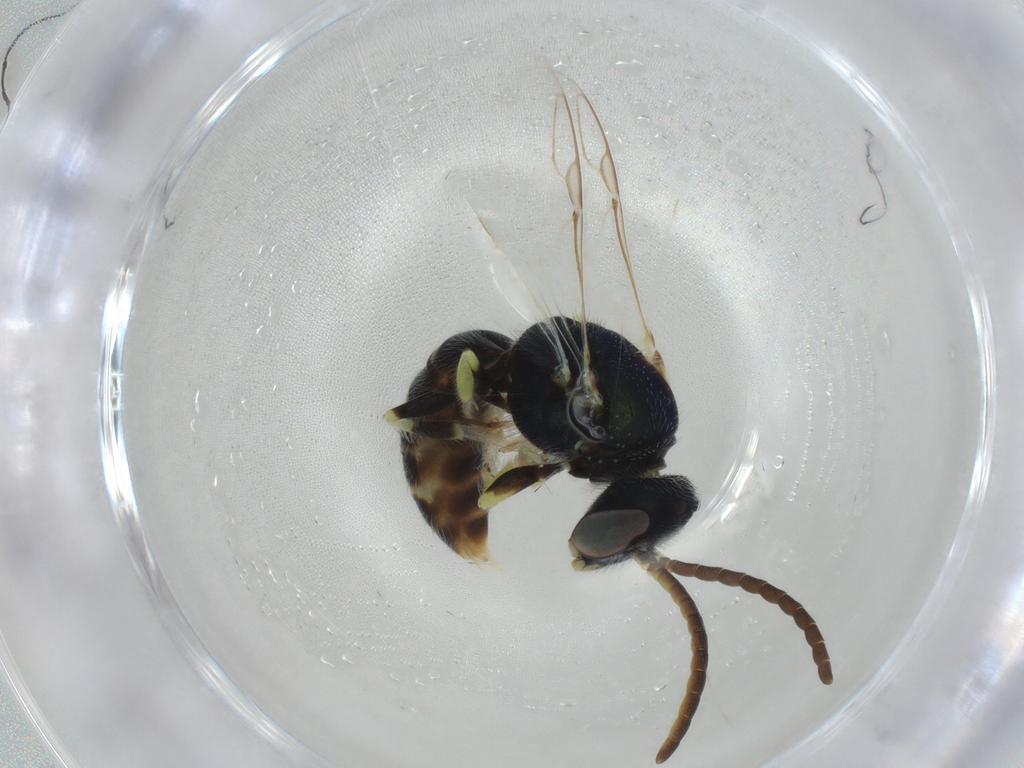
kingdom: Animalia
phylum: Arthropoda
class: Insecta
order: Hymenoptera
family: Halictidae
